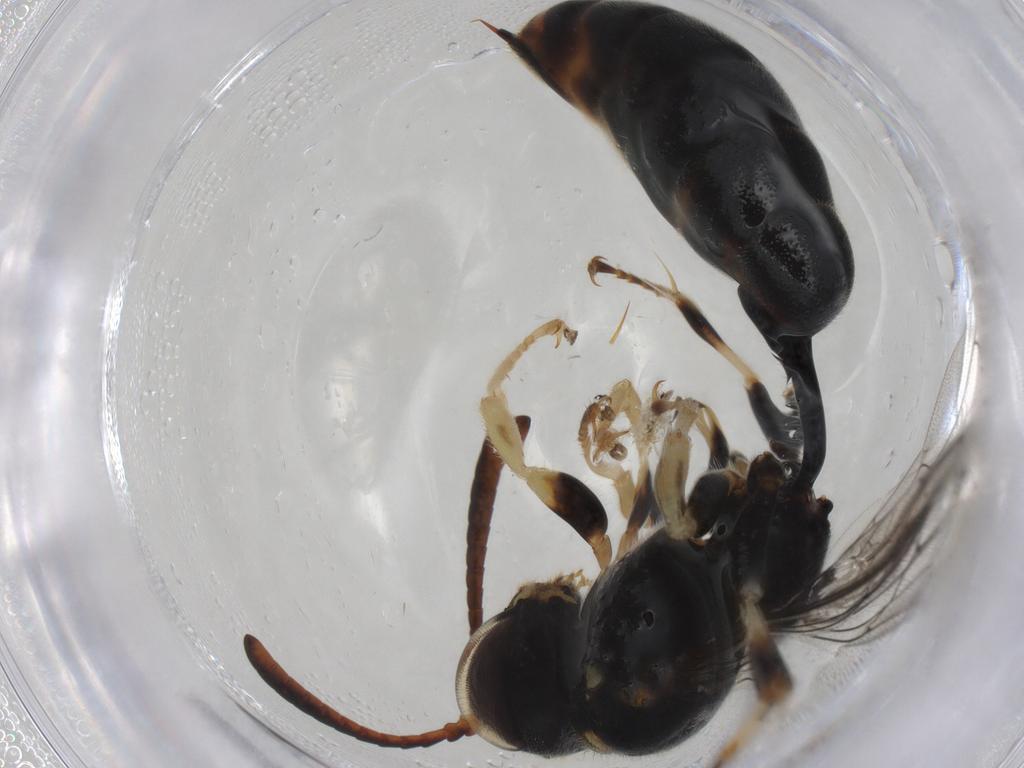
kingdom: Animalia
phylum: Arthropoda
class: Insecta
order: Hymenoptera
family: Crabronidae
